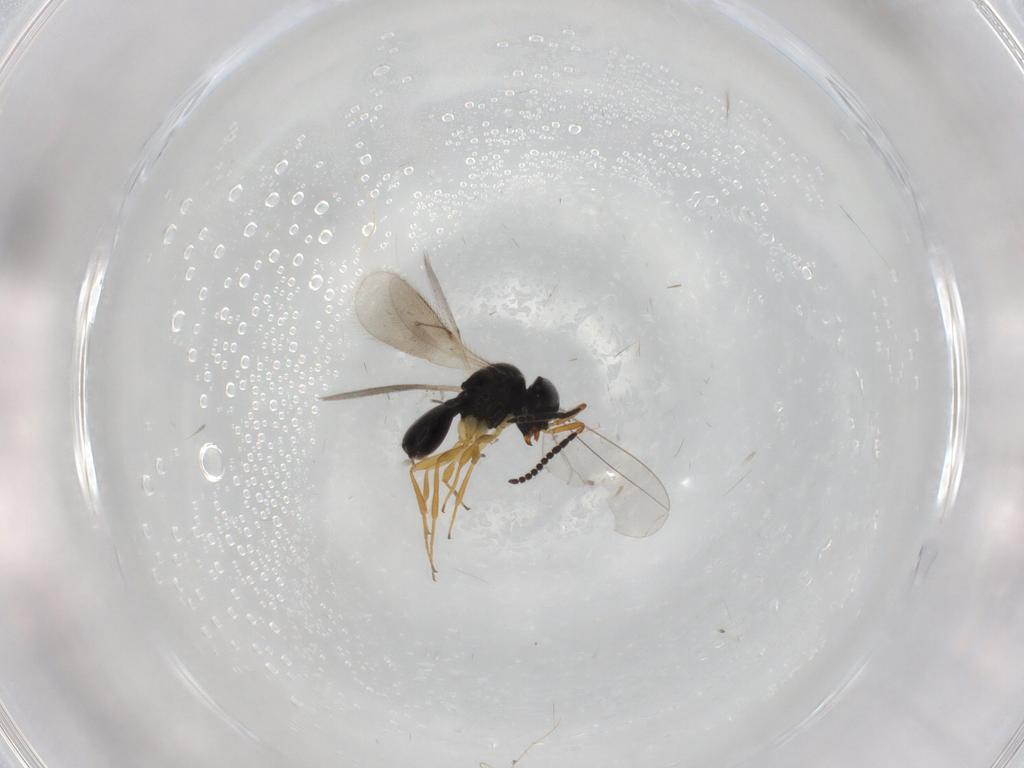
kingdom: Animalia
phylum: Arthropoda
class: Insecta
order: Hymenoptera
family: Scelionidae
